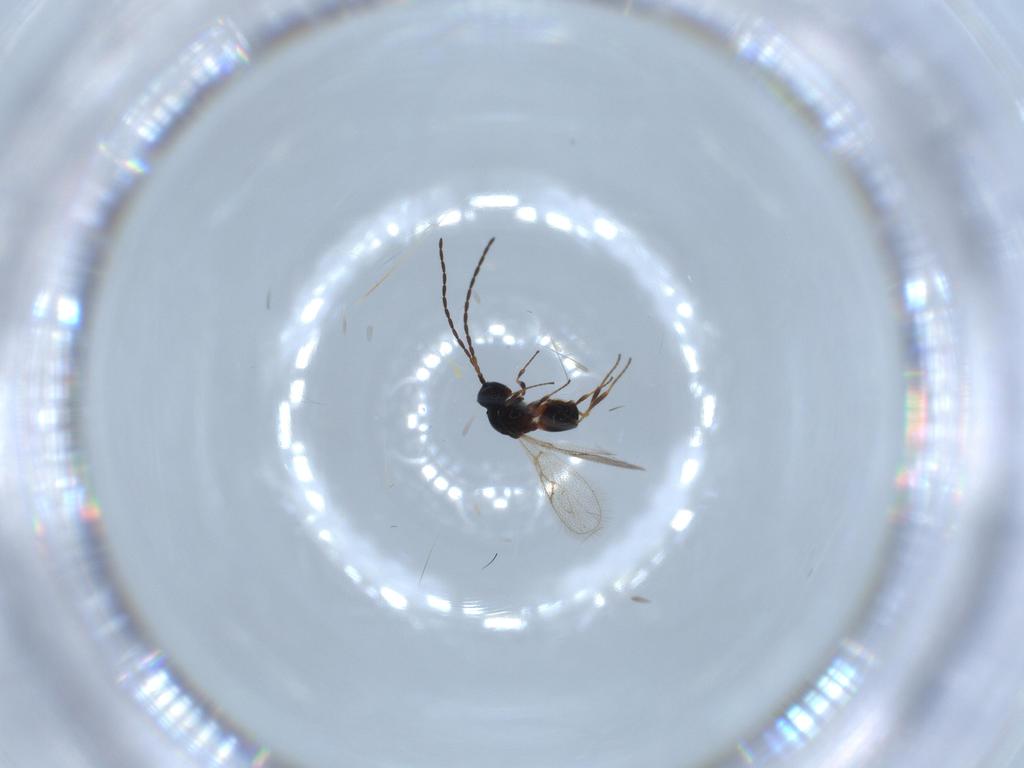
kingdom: Animalia
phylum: Arthropoda
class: Insecta
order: Hymenoptera
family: Figitidae
